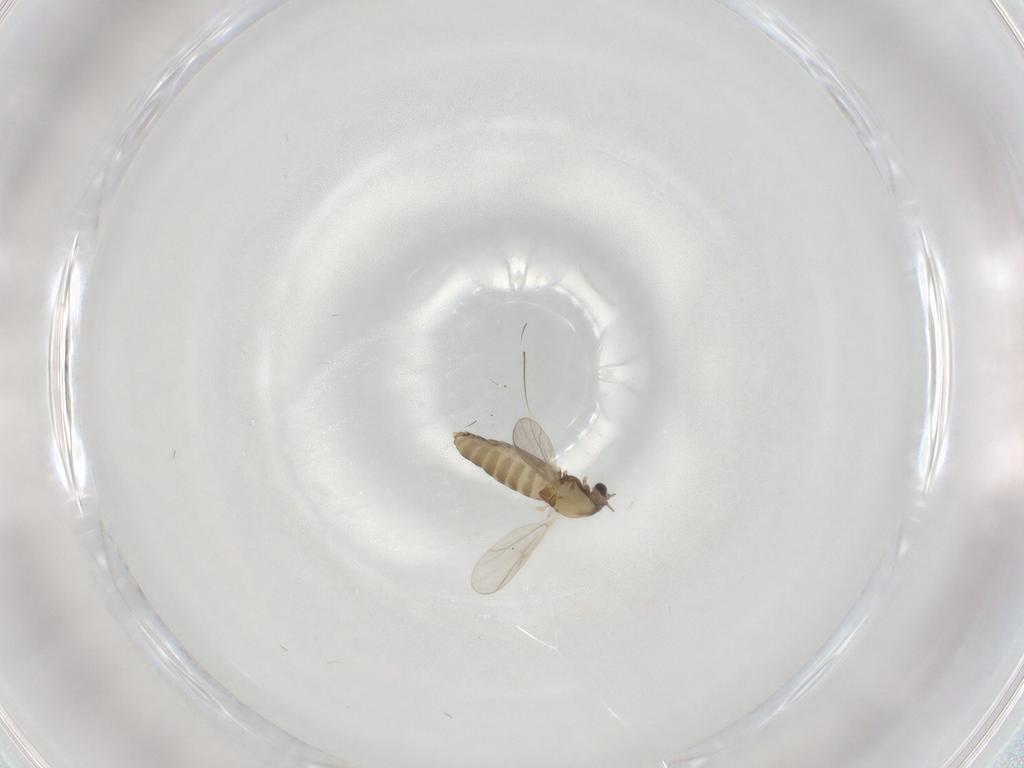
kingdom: Animalia
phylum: Arthropoda
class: Insecta
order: Diptera
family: Chironomidae
